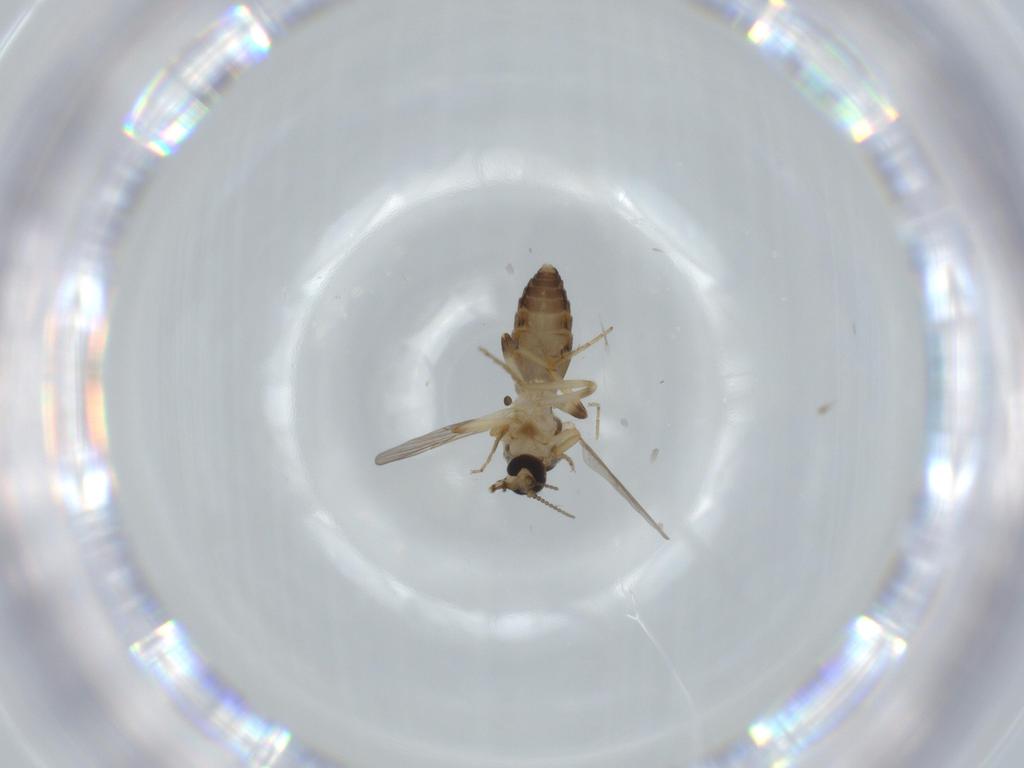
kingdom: Animalia
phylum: Arthropoda
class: Insecta
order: Diptera
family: Ceratopogonidae
